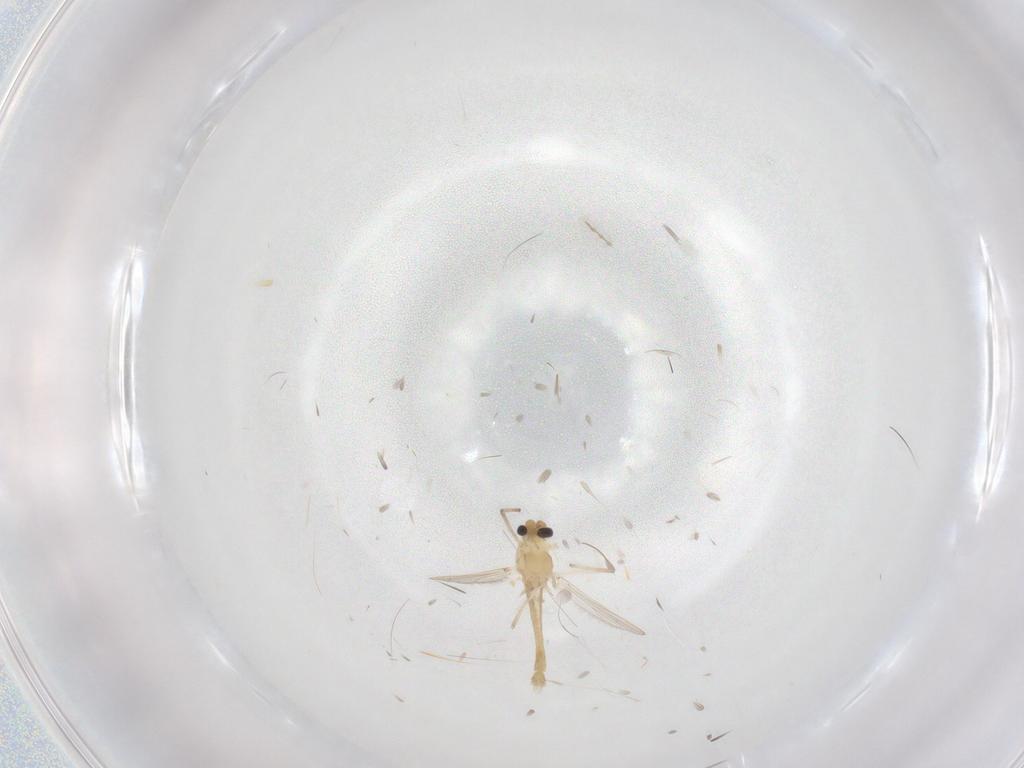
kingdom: Animalia
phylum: Arthropoda
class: Insecta
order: Diptera
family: Chironomidae
